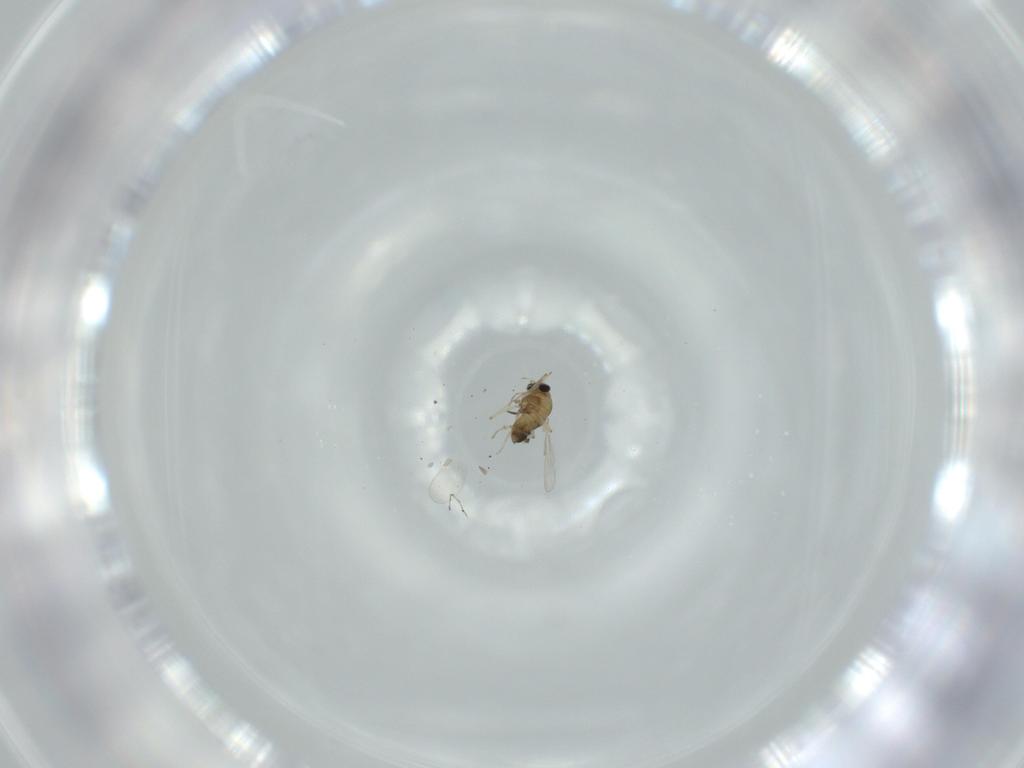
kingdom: Animalia
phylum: Arthropoda
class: Insecta
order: Diptera
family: Chironomidae
